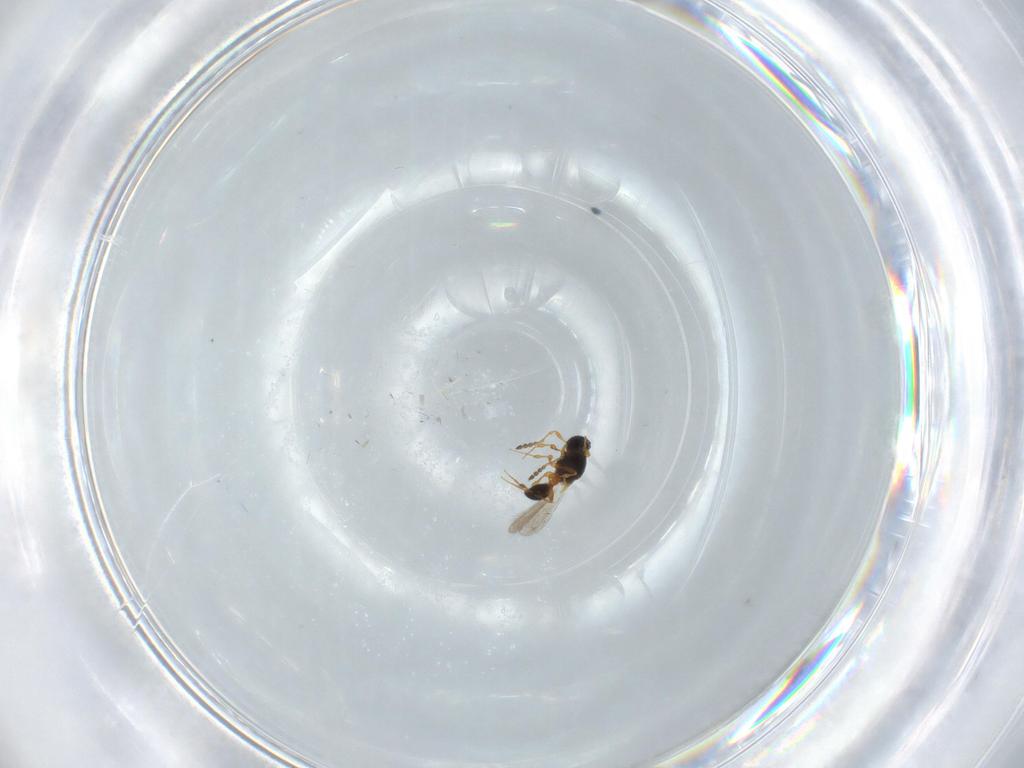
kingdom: Animalia
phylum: Arthropoda
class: Insecta
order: Hymenoptera
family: Platygastridae
